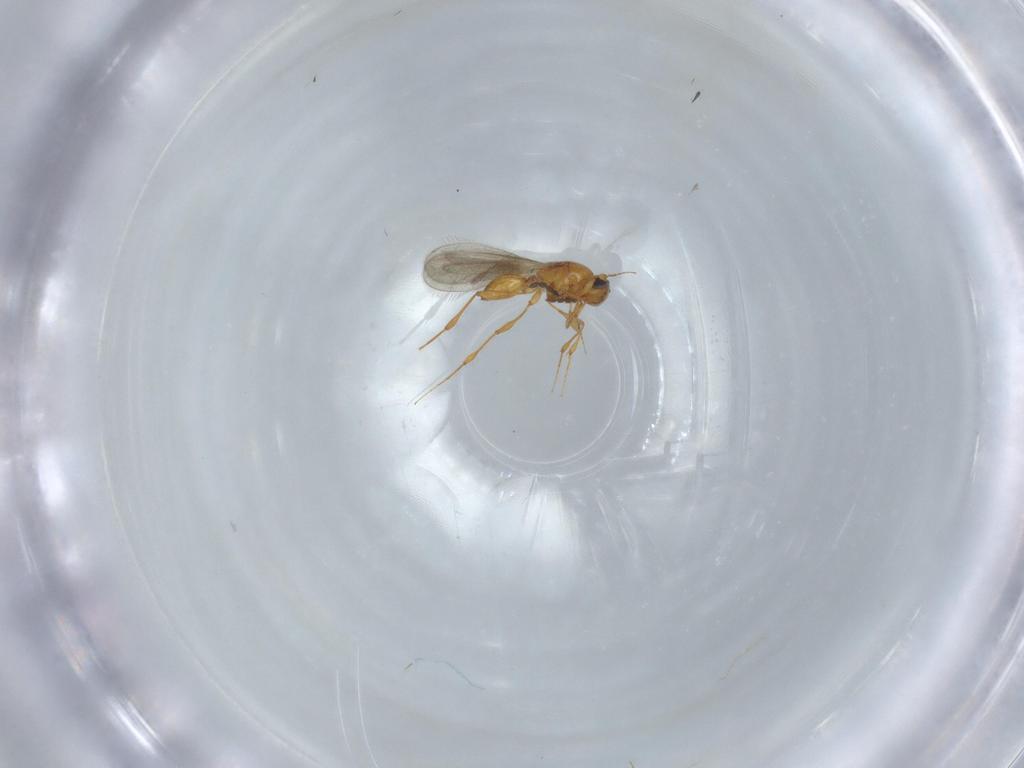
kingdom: Animalia
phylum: Arthropoda
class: Insecta
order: Hymenoptera
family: Platygastridae
